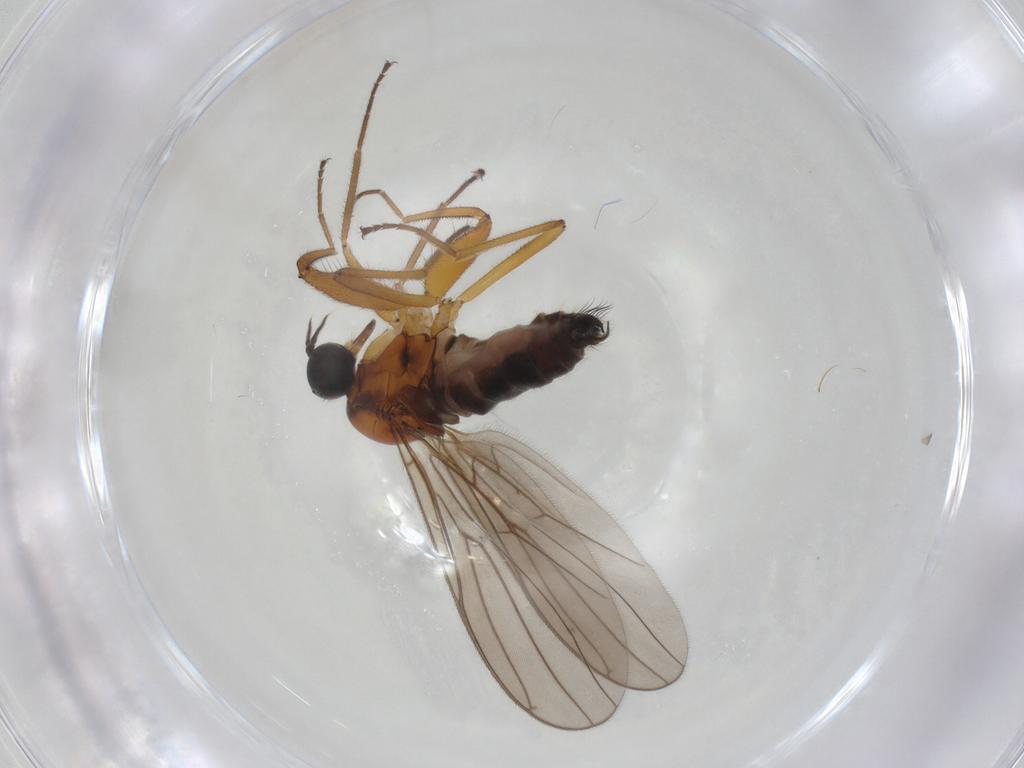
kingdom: Animalia
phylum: Arthropoda
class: Insecta
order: Diptera
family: Hybotidae
